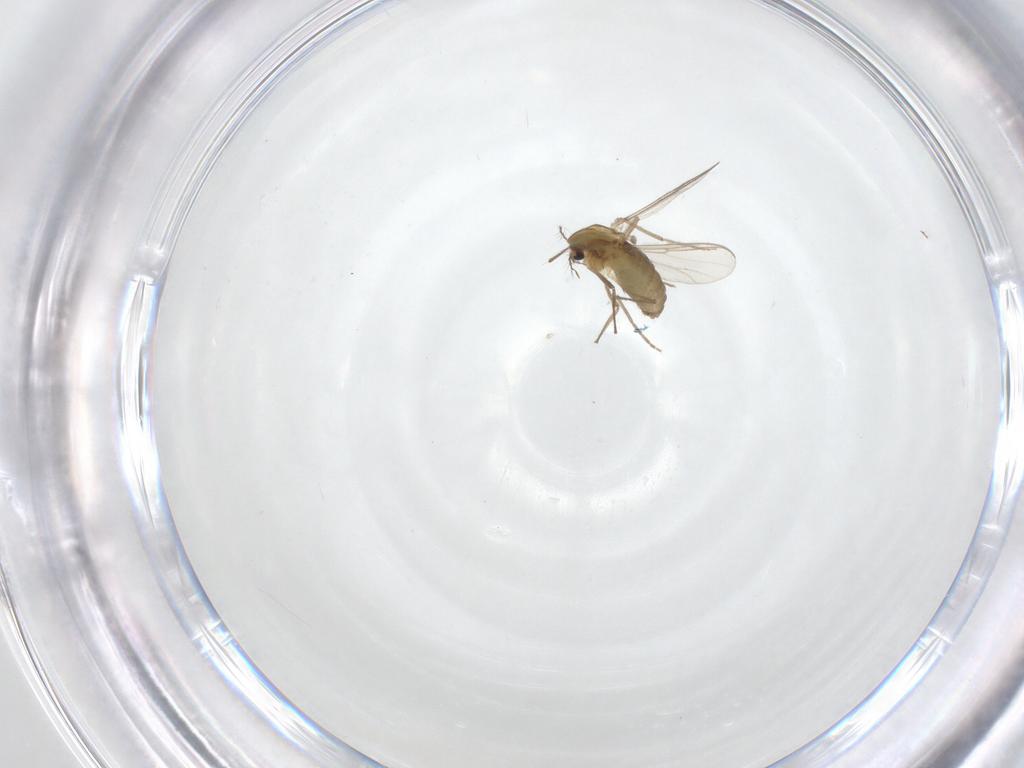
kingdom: Animalia
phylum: Arthropoda
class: Insecta
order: Diptera
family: Chironomidae
